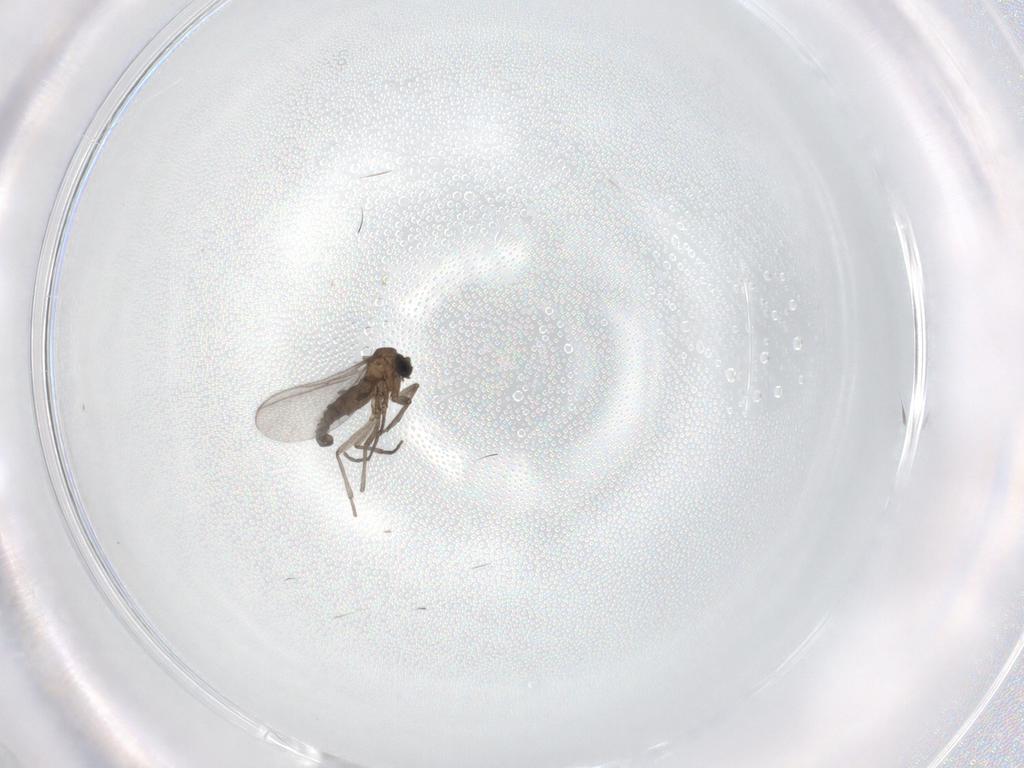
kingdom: Animalia
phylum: Arthropoda
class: Insecta
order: Diptera
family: Sciaridae
